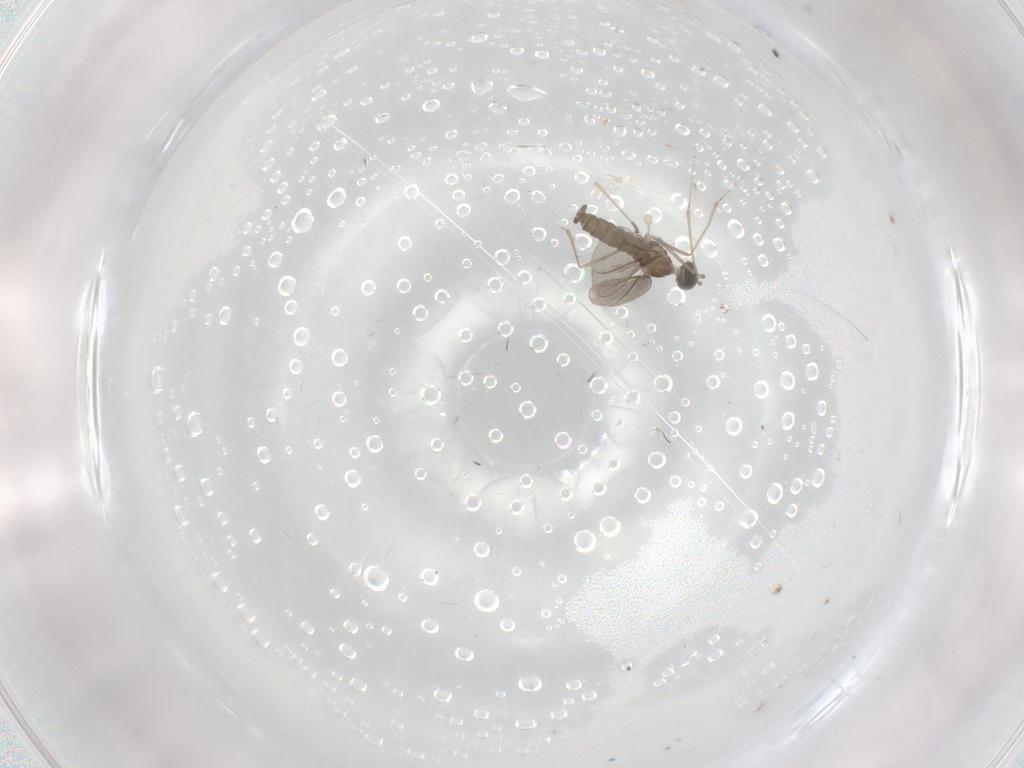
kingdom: Animalia
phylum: Arthropoda
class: Insecta
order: Diptera
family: Cecidomyiidae
